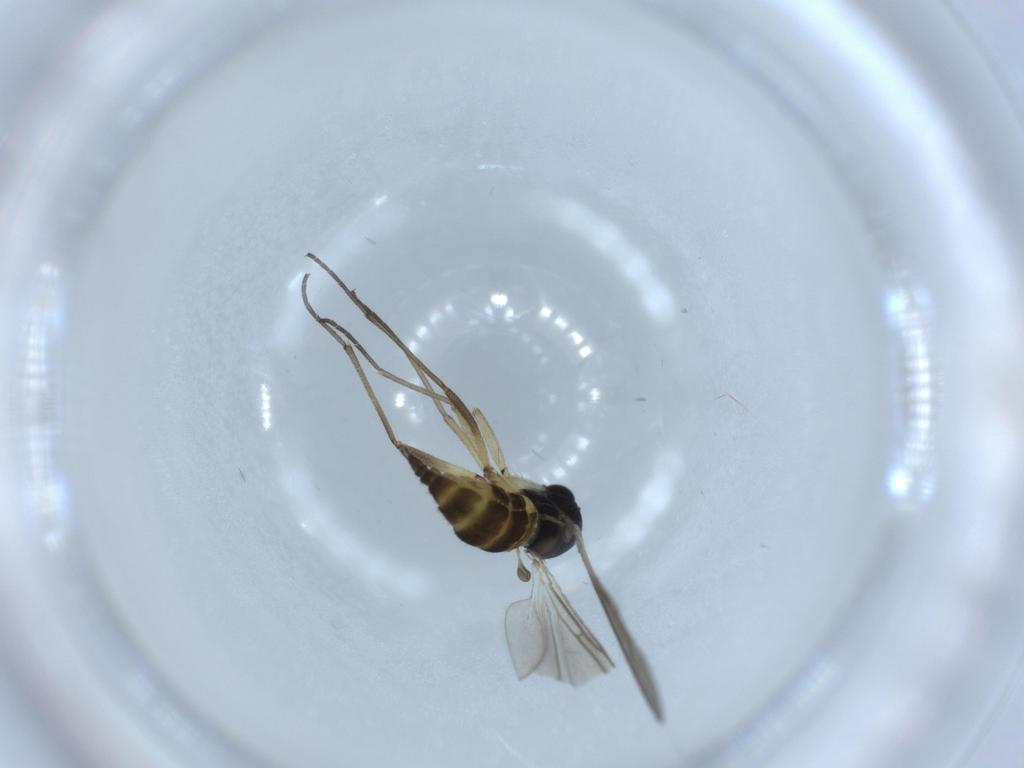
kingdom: Animalia
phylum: Arthropoda
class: Insecta
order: Diptera
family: Sciaridae
